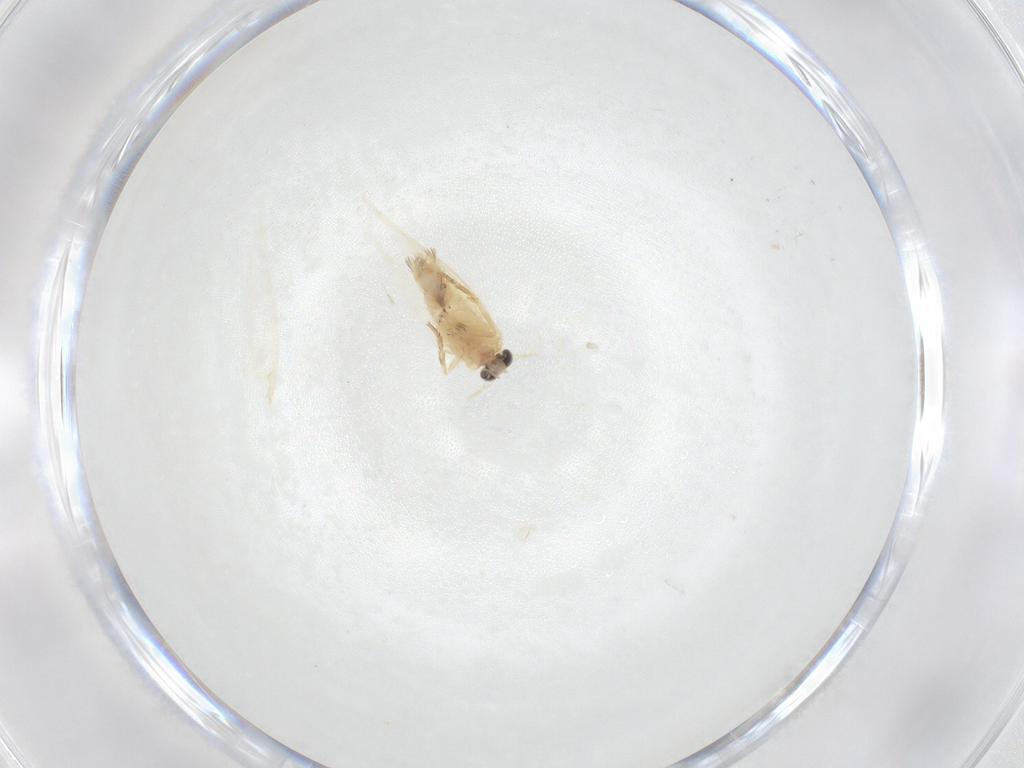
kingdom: Animalia
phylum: Arthropoda
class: Insecta
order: Lepidoptera
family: Nepticulidae
